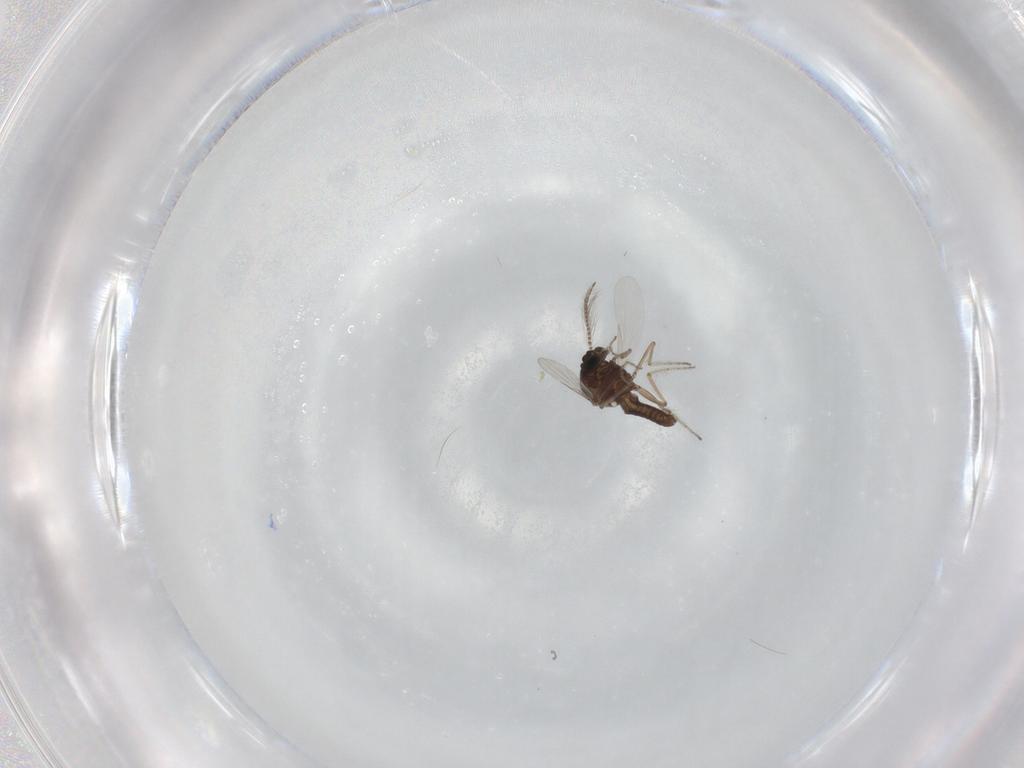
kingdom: Animalia
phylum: Arthropoda
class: Insecta
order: Diptera
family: Ceratopogonidae
